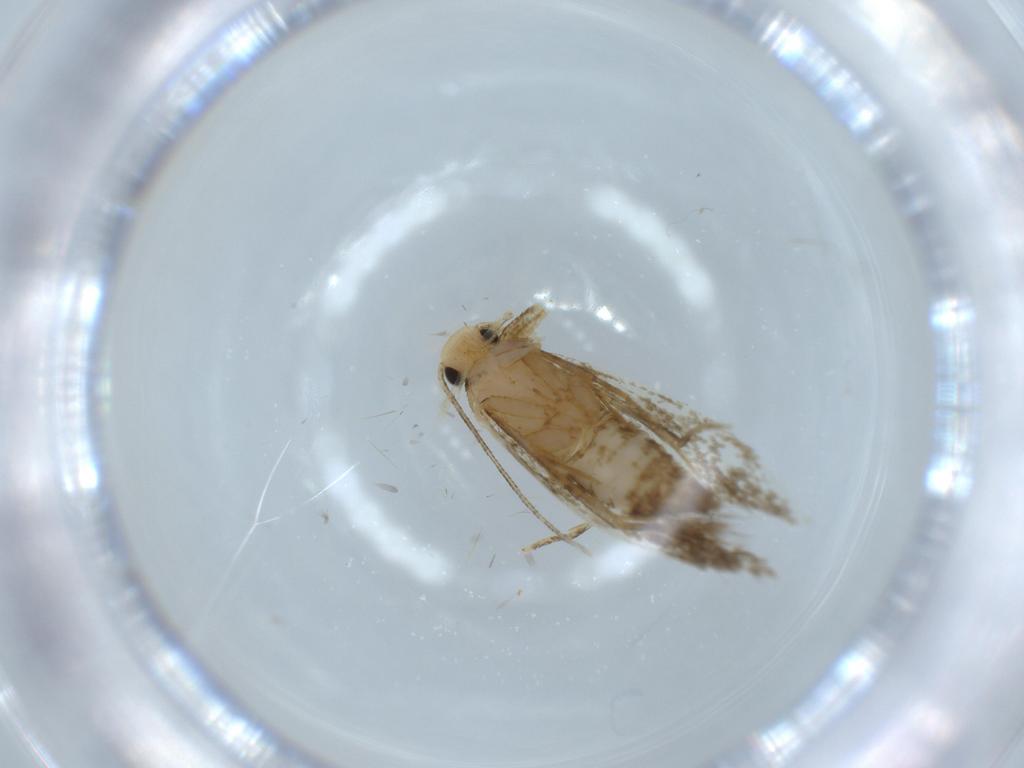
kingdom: Animalia
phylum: Arthropoda
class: Insecta
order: Lepidoptera
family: Tineidae
